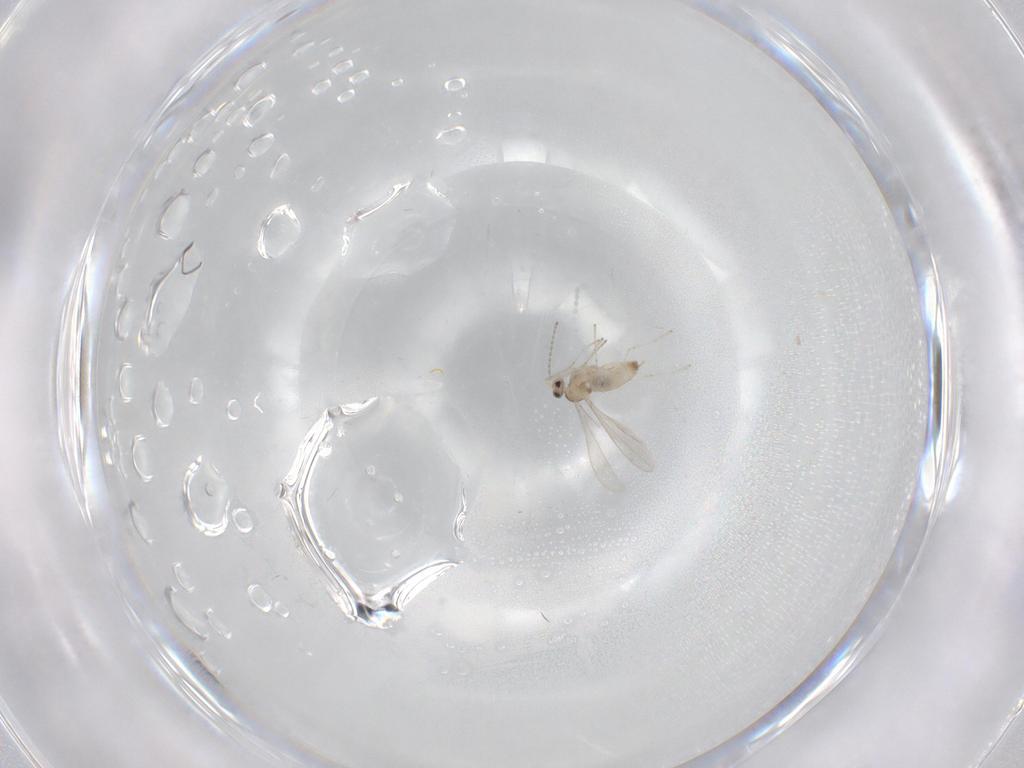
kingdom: Animalia
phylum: Arthropoda
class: Insecta
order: Diptera
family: Cecidomyiidae
